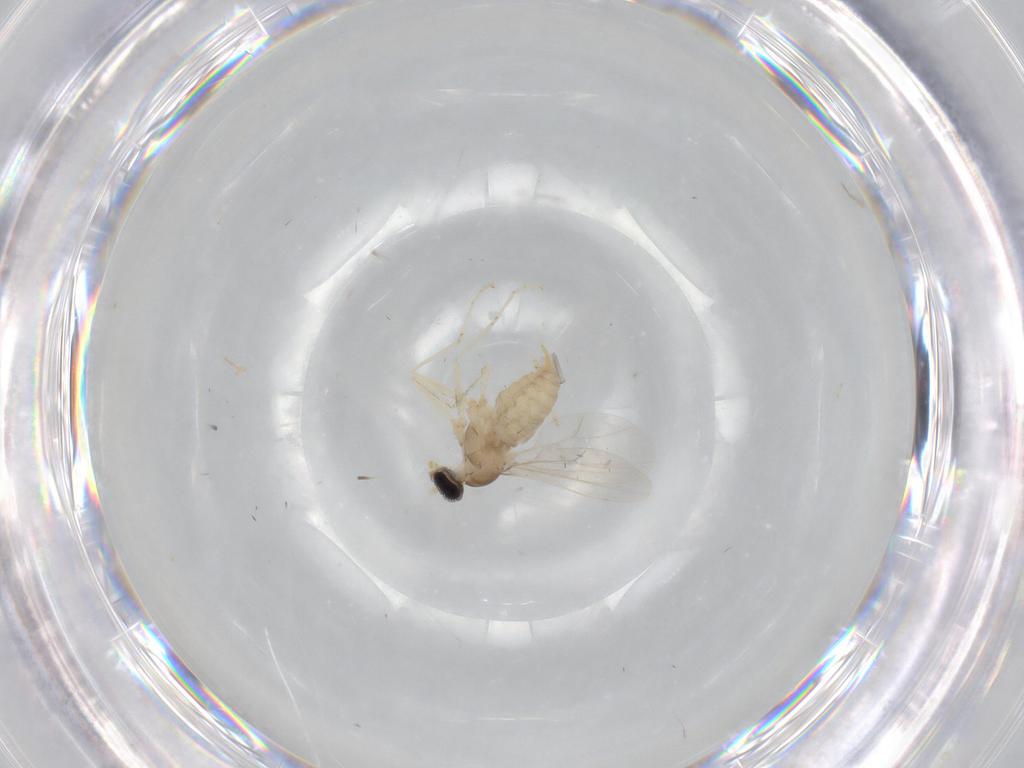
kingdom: Animalia
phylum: Arthropoda
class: Insecta
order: Diptera
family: Cecidomyiidae
